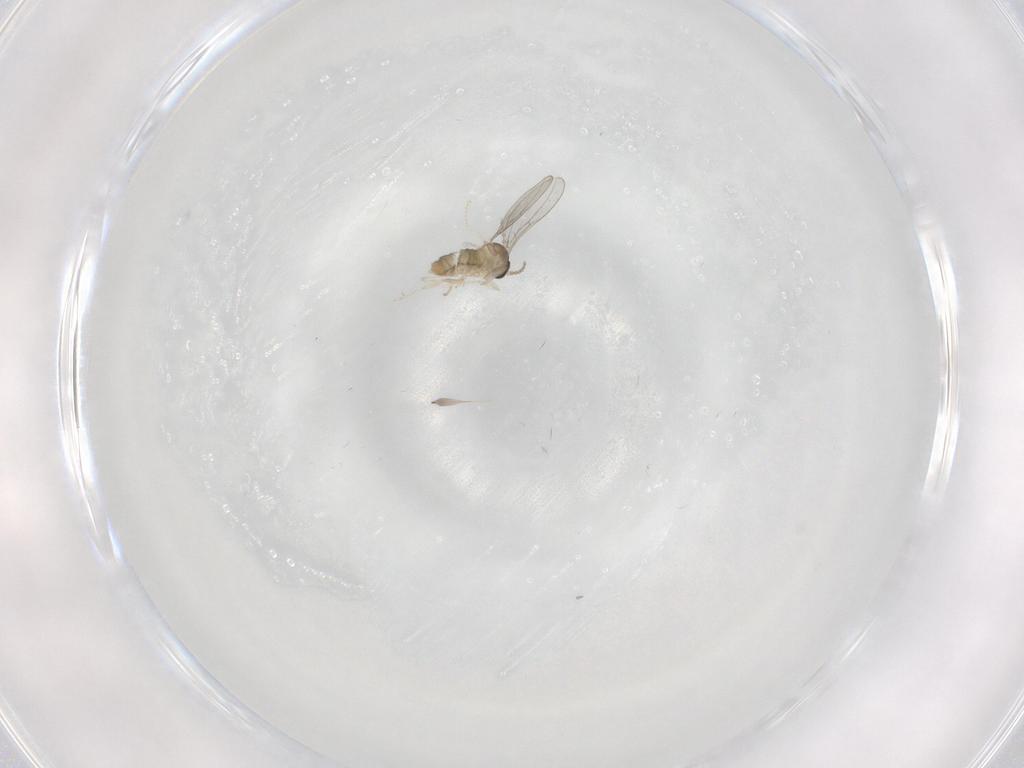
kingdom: Animalia
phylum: Arthropoda
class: Insecta
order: Diptera
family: Cecidomyiidae
